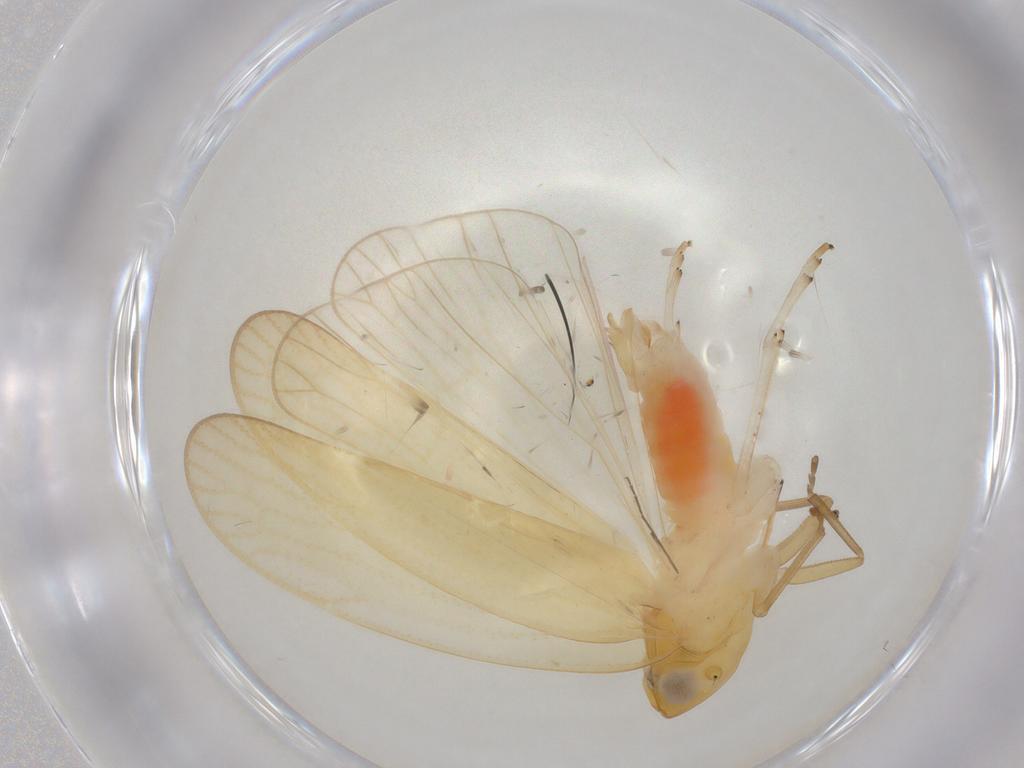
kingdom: Animalia
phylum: Arthropoda
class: Insecta
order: Hemiptera
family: Cixiidae
